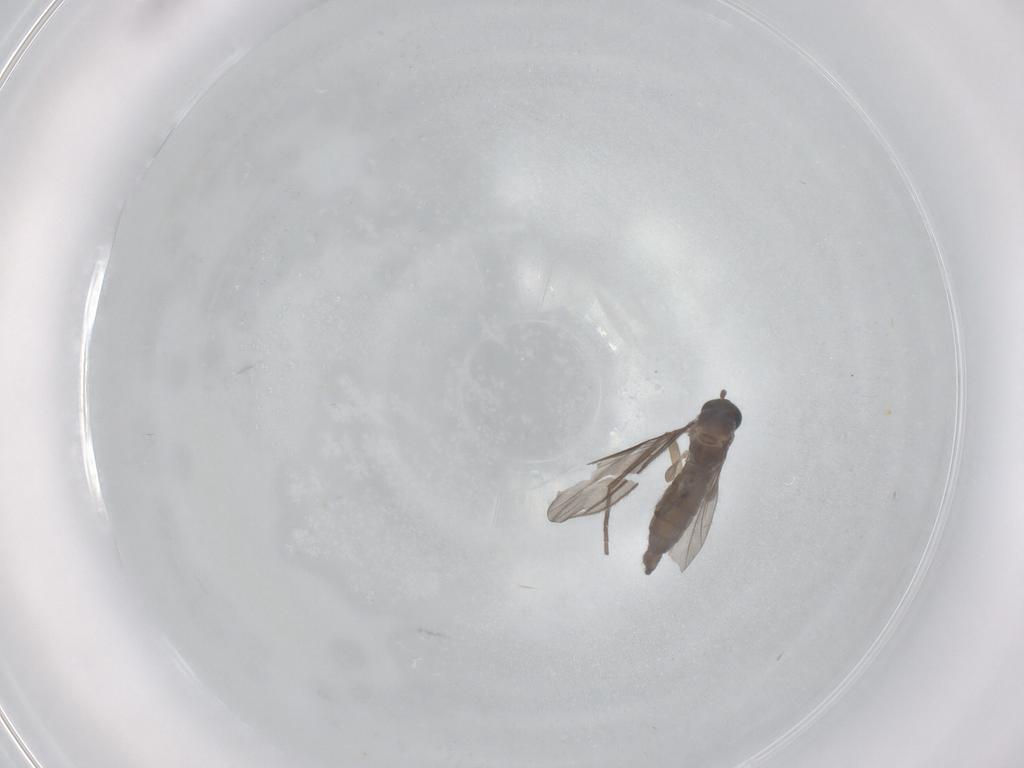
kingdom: Animalia
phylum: Arthropoda
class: Insecta
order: Diptera
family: Sciaridae
